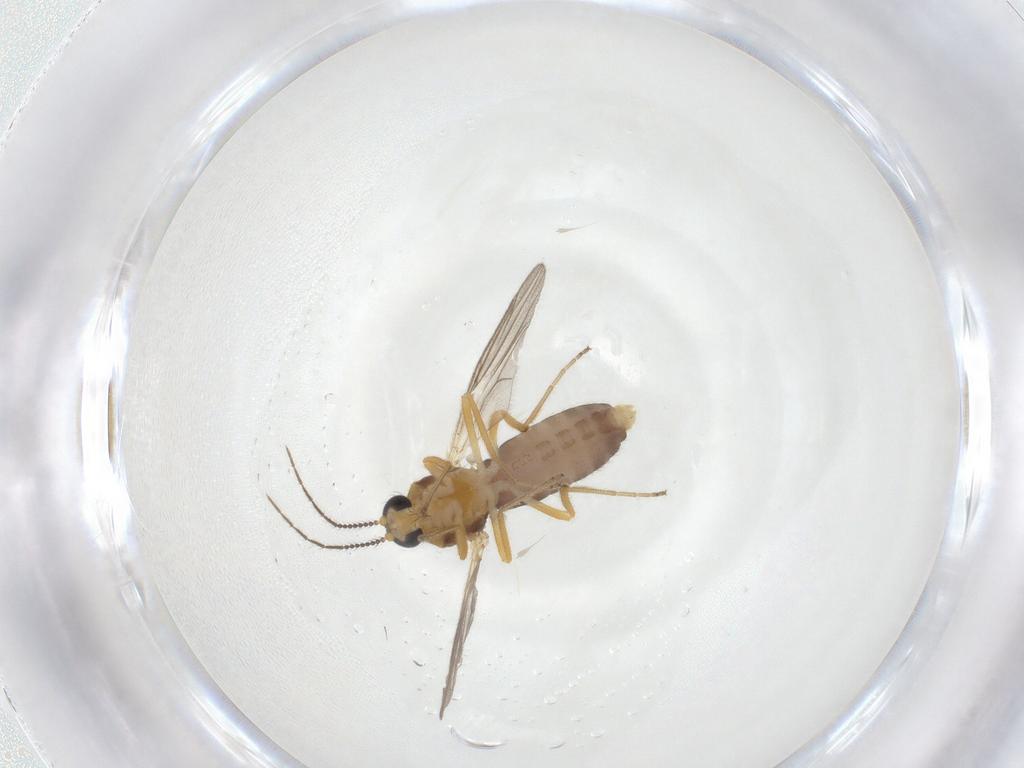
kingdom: Animalia
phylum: Arthropoda
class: Insecta
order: Diptera
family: Ceratopogonidae
